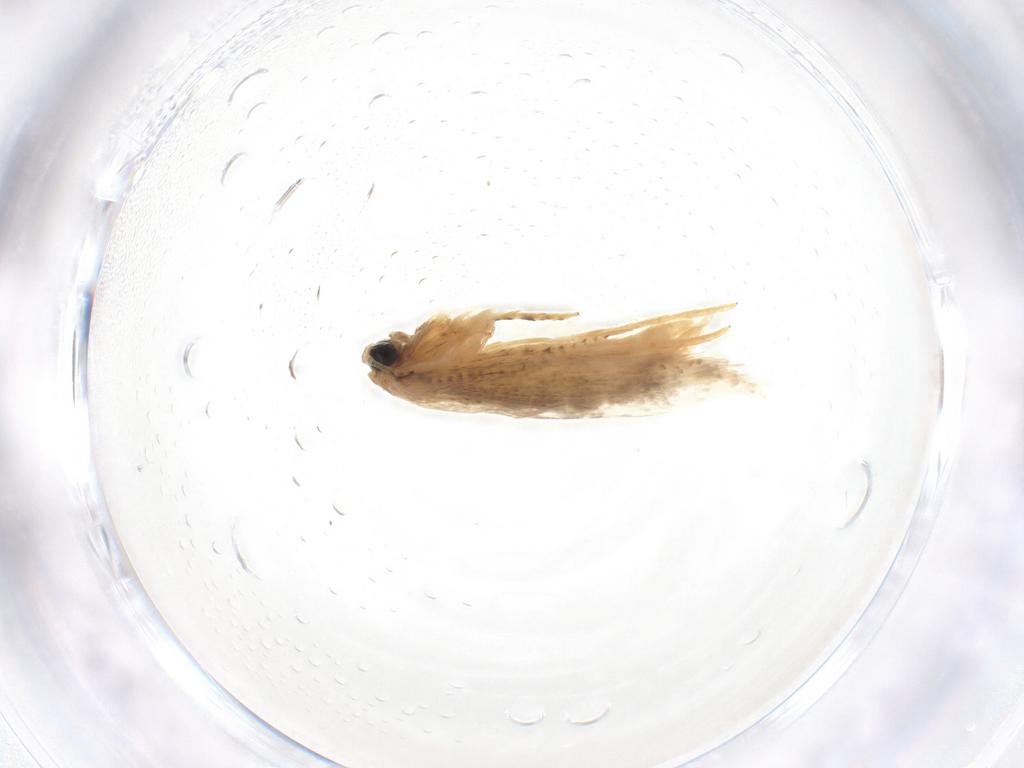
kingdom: Animalia
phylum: Arthropoda
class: Insecta
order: Lepidoptera
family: Nepticulidae
